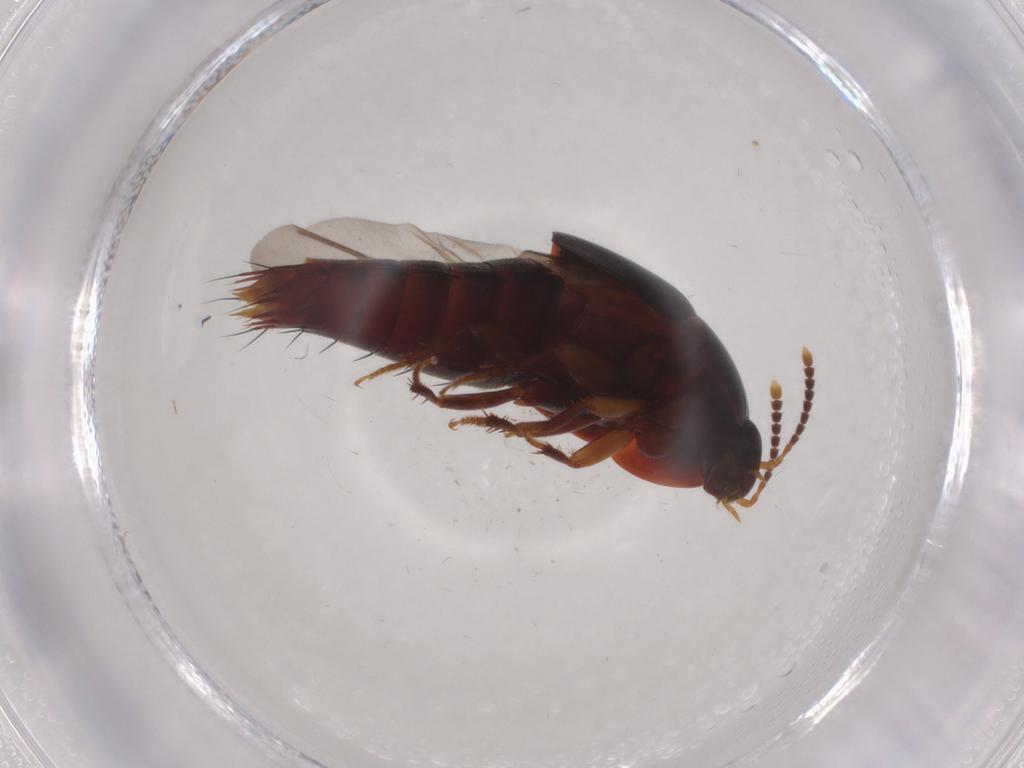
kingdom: Animalia
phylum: Arthropoda
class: Insecta
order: Coleoptera
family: Staphylinidae
